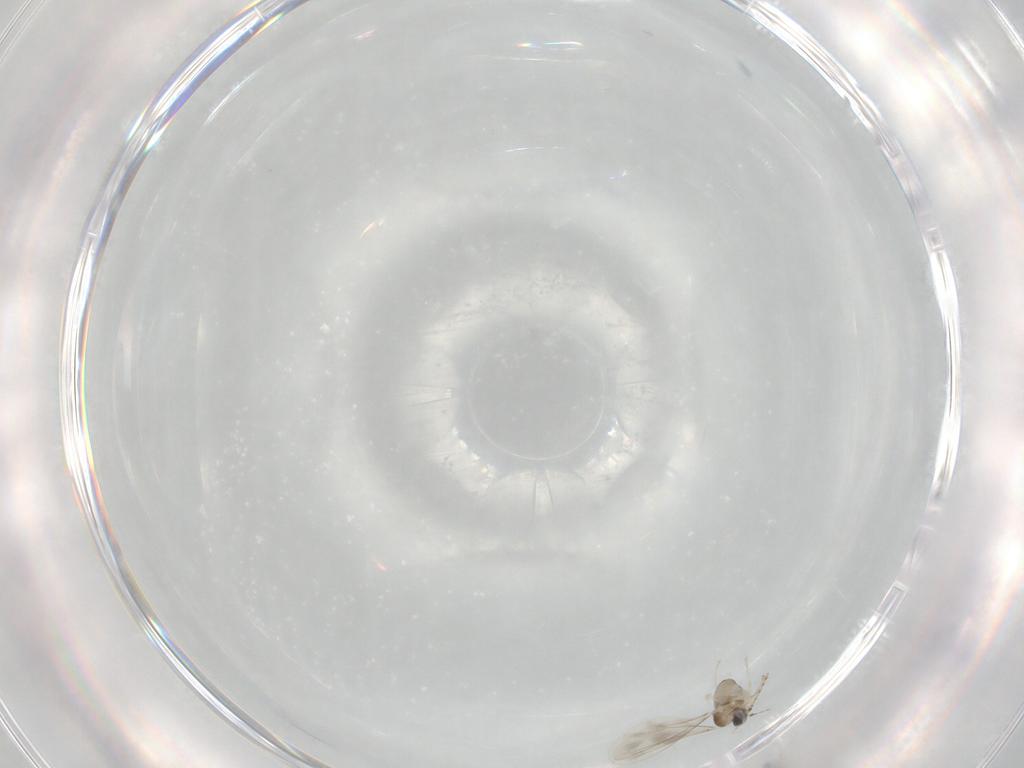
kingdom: Animalia
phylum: Arthropoda
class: Insecta
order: Diptera
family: Cecidomyiidae
